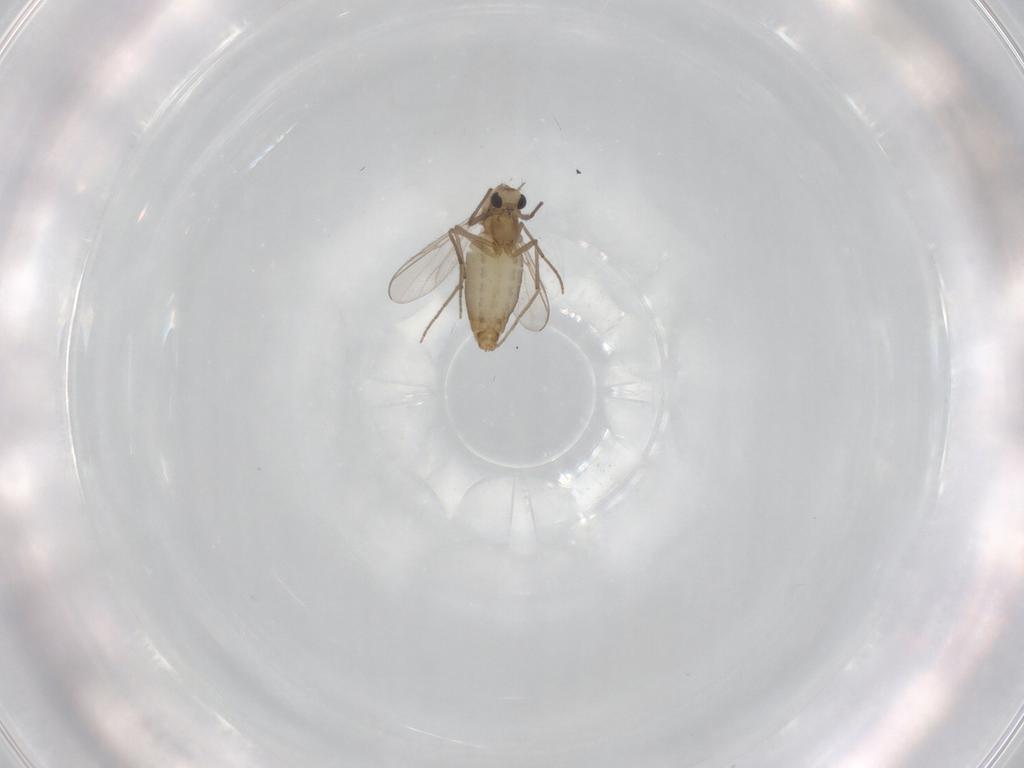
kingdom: Animalia
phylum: Arthropoda
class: Insecta
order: Diptera
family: Chironomidae
